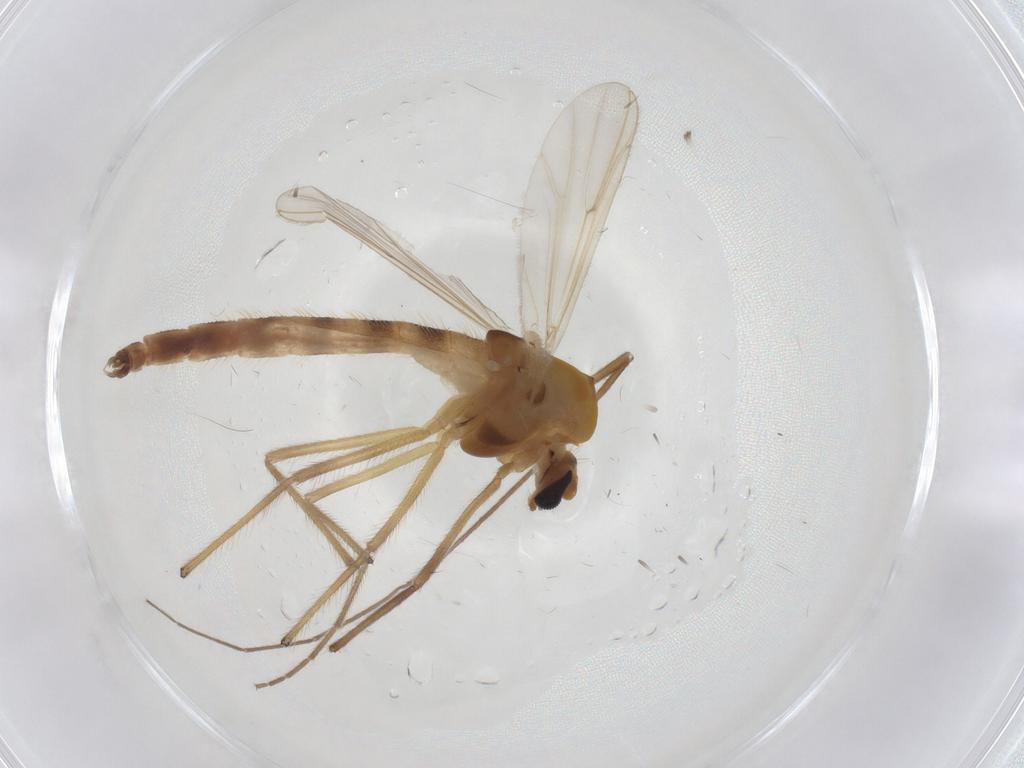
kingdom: Animalia
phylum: Arthropoda
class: Insecta
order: Diptera
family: Chironomidae
